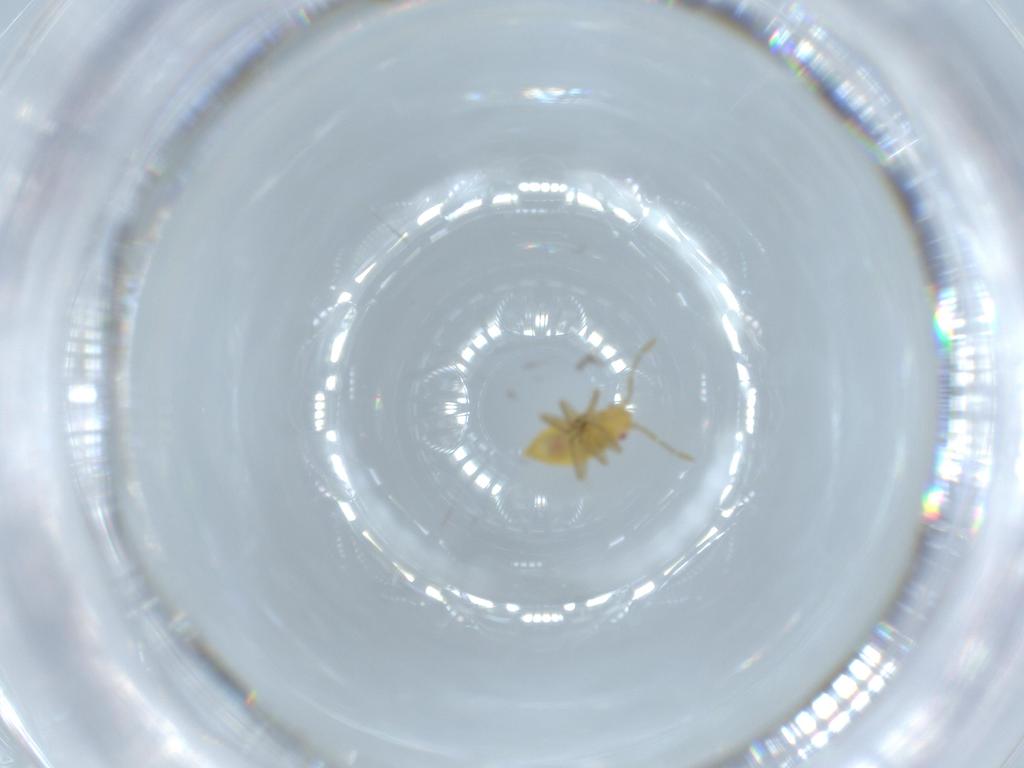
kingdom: Animalia
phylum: Arthropoda
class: Insecta
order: Hemiptera
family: Miridae
